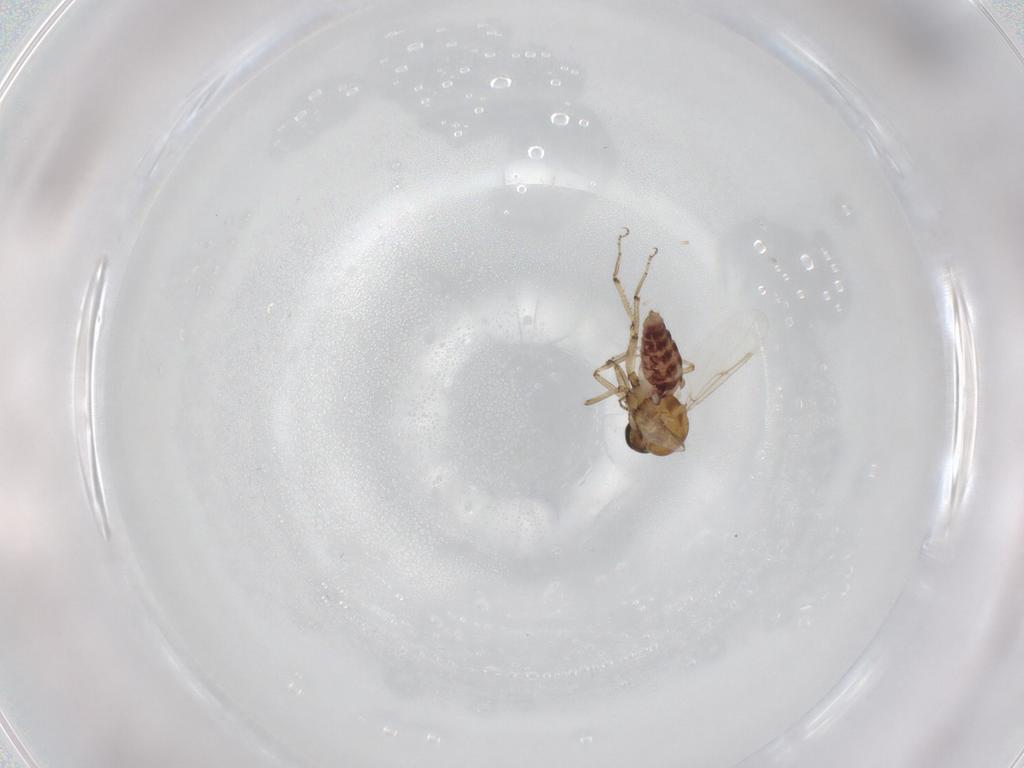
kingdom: Animalia
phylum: Arthropoda
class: Insecta
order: Diptera
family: Ceratopogonidae
